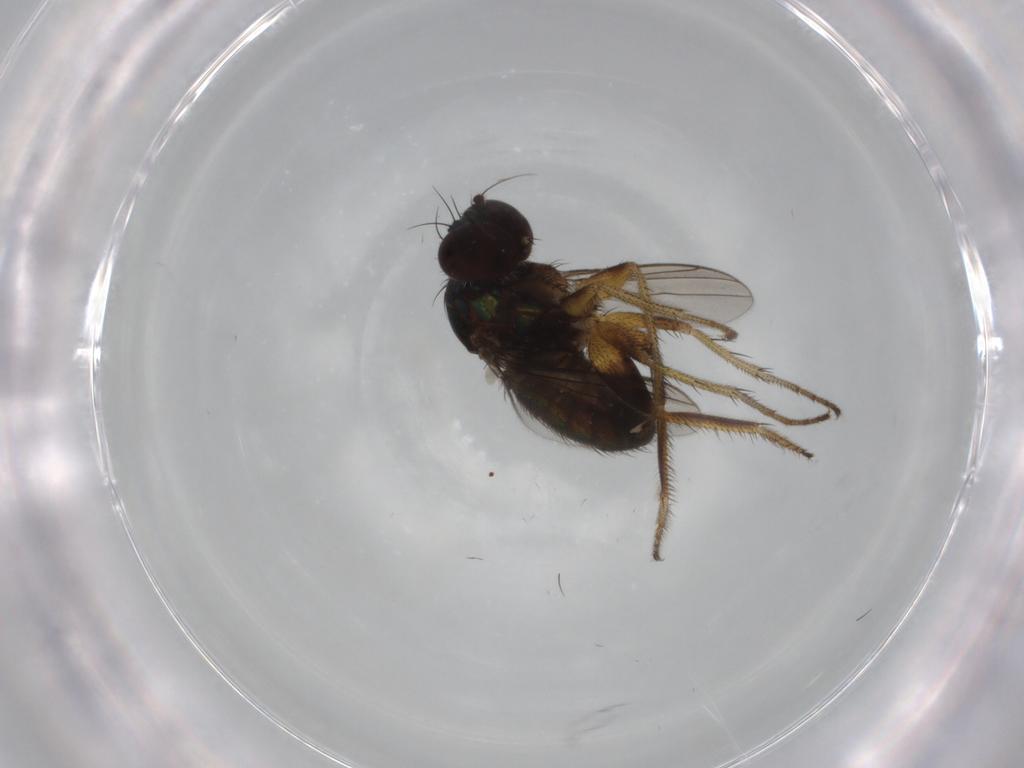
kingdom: Animalia
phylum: Arthropoda
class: Insecta
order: Diptera
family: Dolichopodidae
